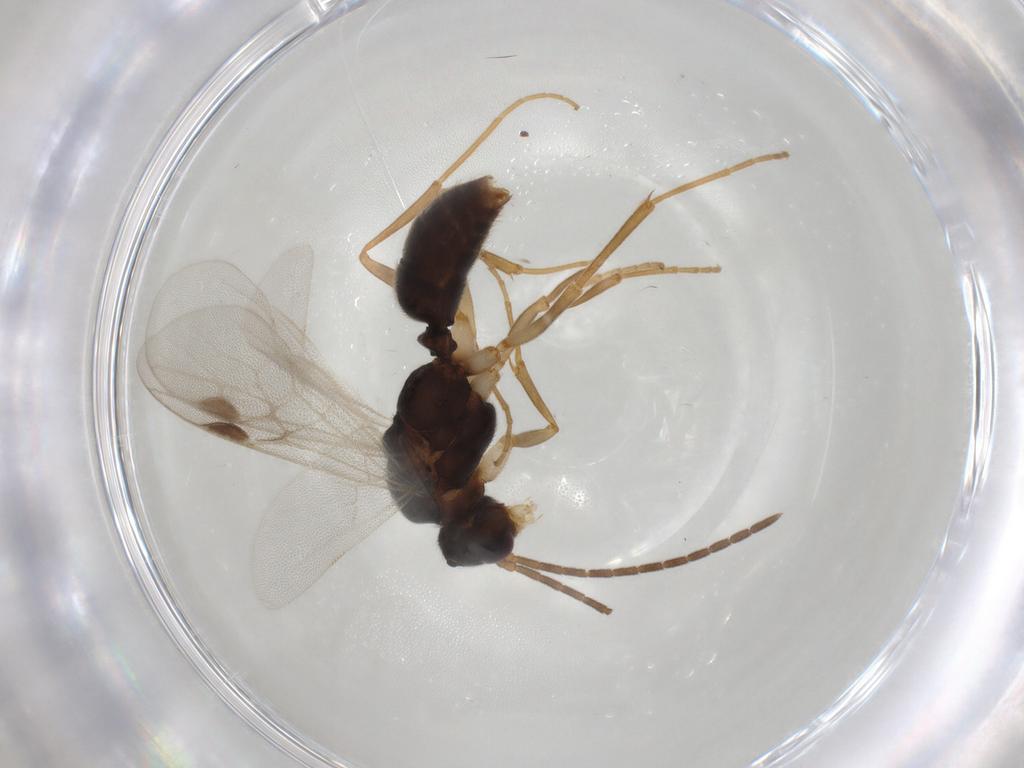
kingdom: Animalia
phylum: Arthropoda
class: Insecta
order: Hymenoptera
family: Formicidae
